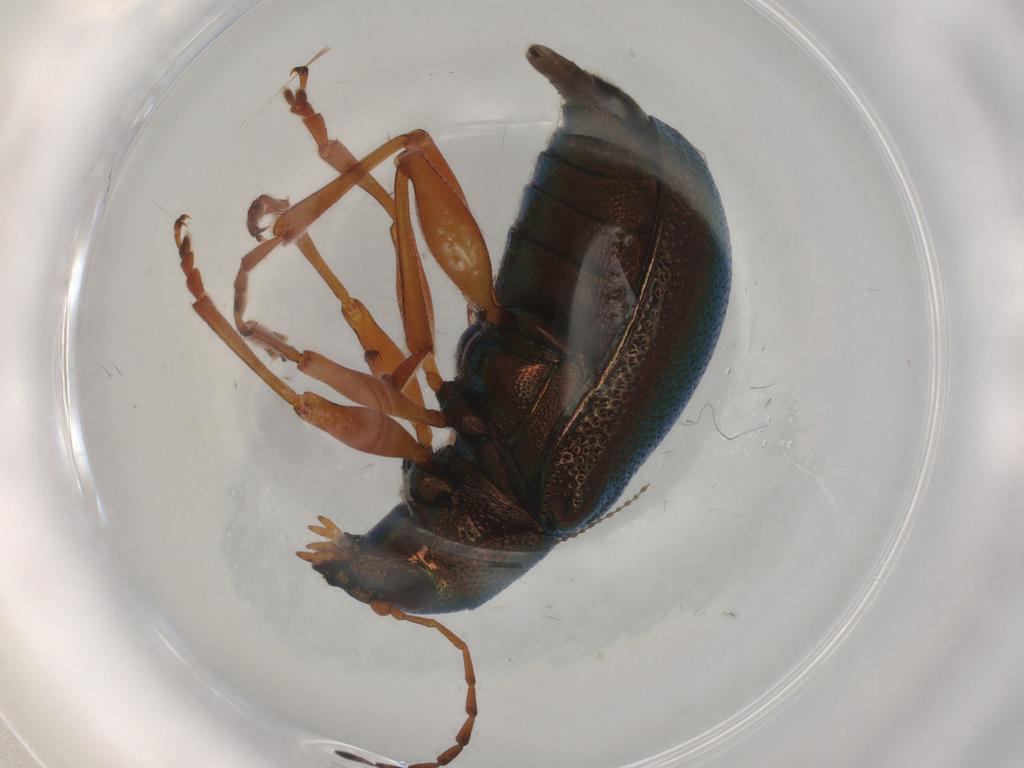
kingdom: Animalia
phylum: Arthropoda
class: Insecta
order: Coleoptera
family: Chrysomelidae
